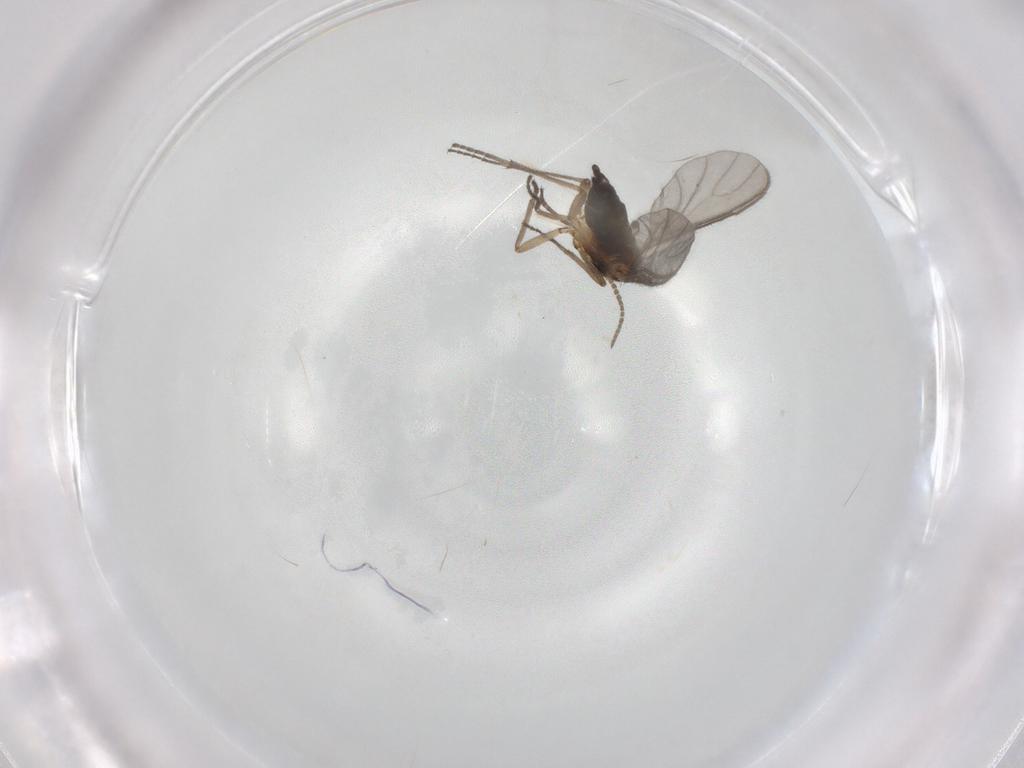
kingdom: Animalia
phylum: Arthropoda
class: Insecta
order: Diptera
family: Sciaridae
